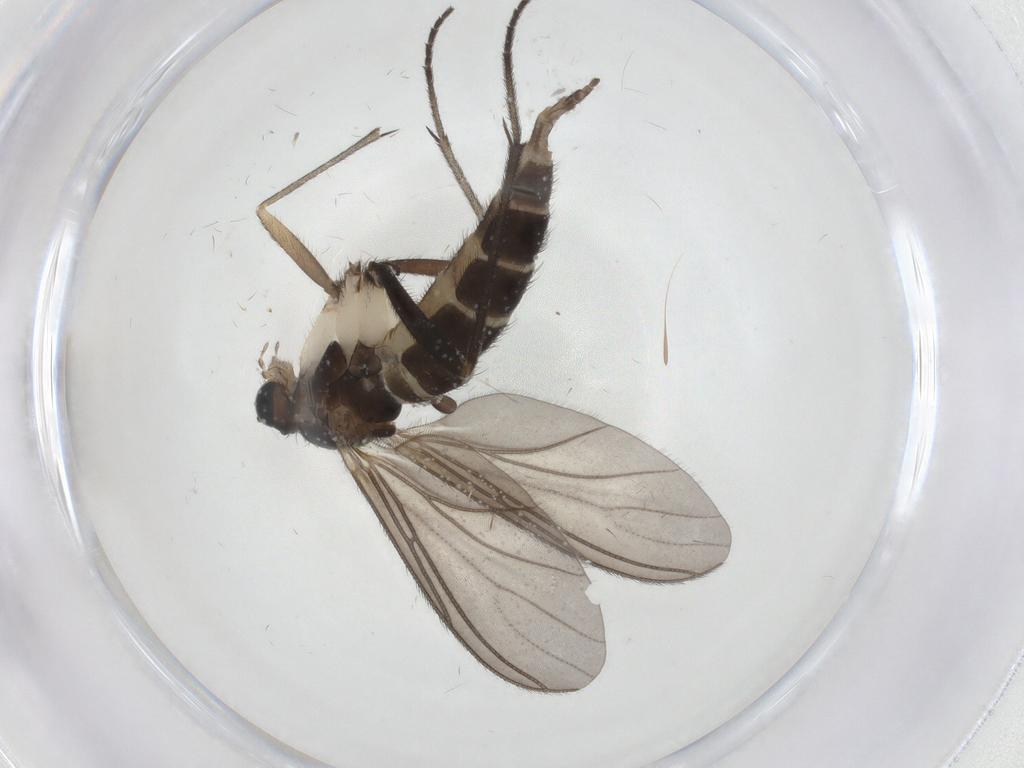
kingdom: Animalia
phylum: Arthropoda
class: Insecta
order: Diptera
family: Sciaridae
